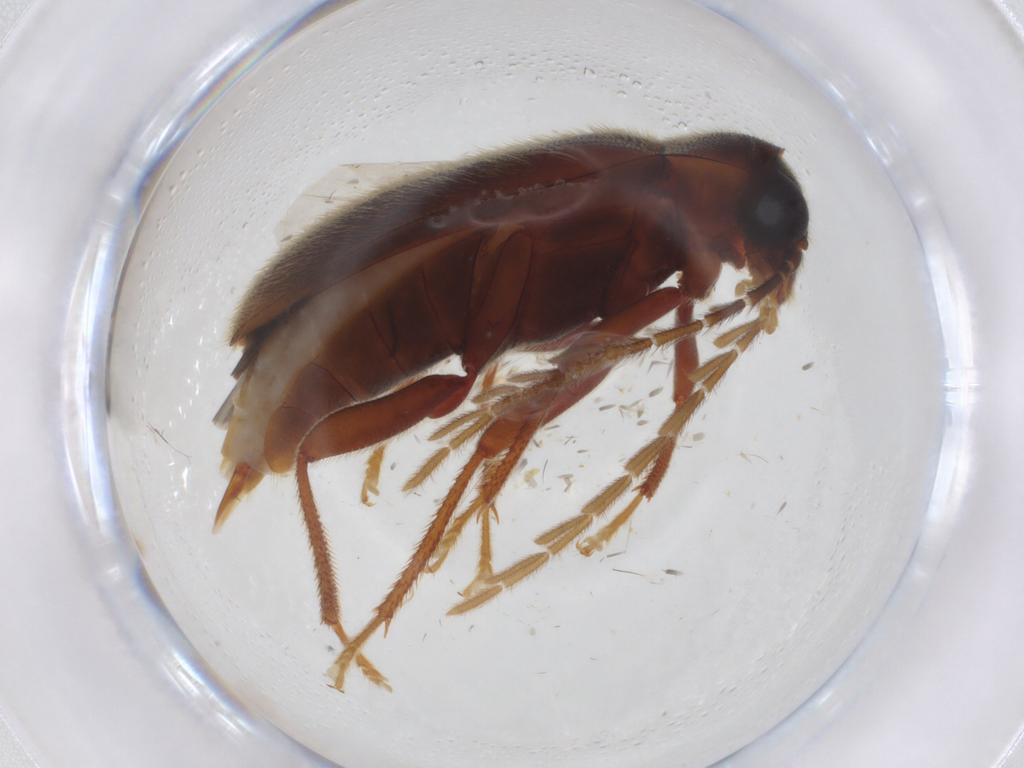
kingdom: Animalia
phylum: Arthropoda
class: Insecta
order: Coleoptera
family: Ptilodactylidae
